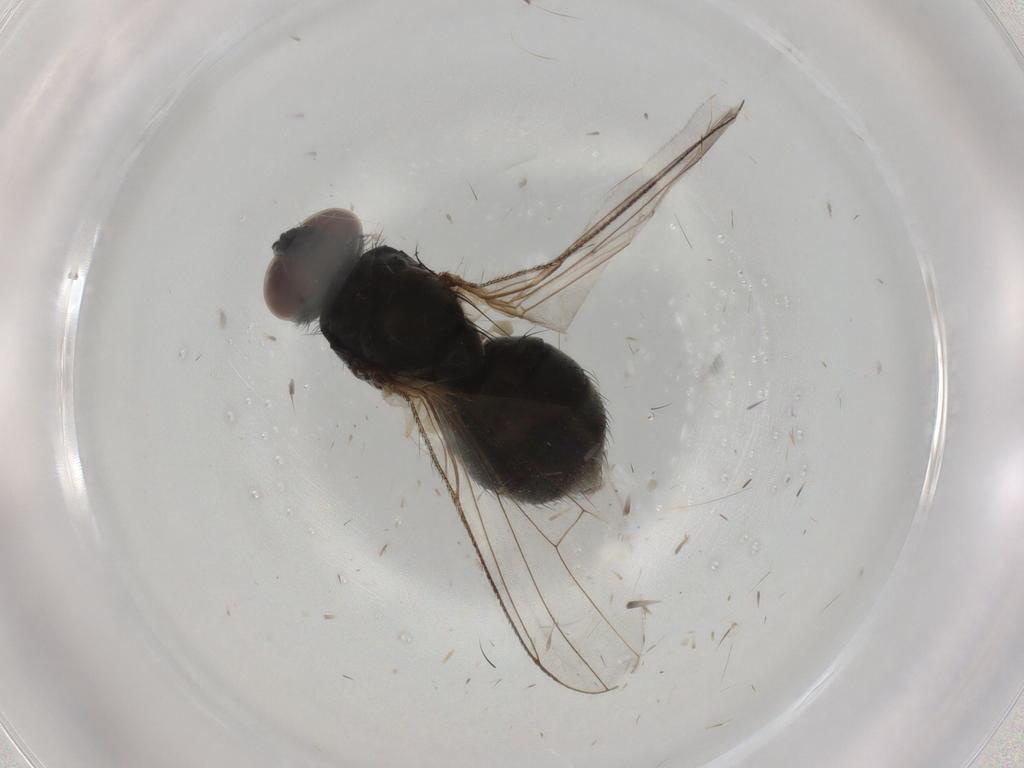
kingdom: Animalia
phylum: Arthropoda
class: Insecta
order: Diptera
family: Muscidae
